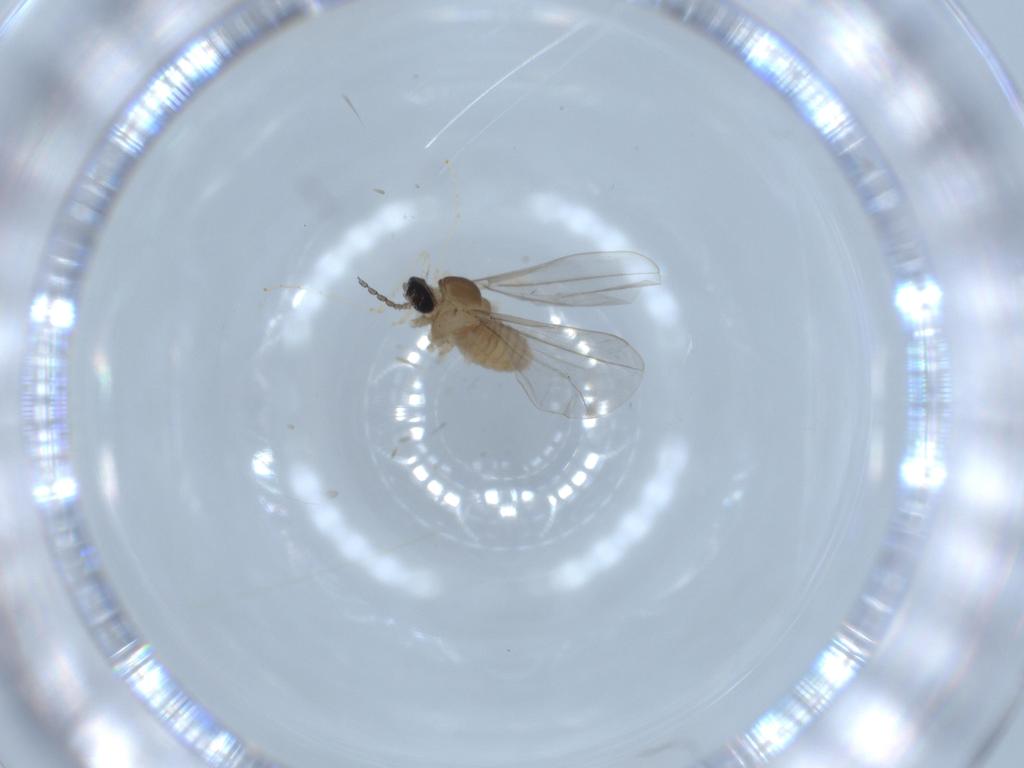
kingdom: Animalia
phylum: Arthropoda
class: Insecta
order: Diptera
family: Cecidomyiidae
